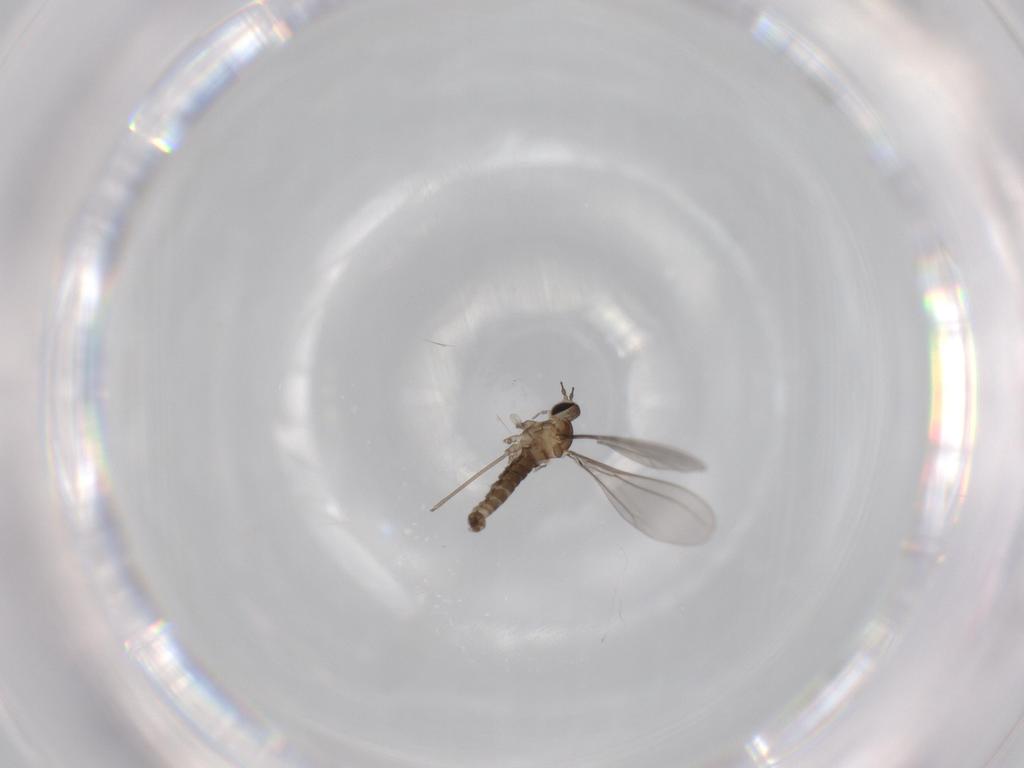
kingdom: Animalia
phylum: Arthropoda
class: Insecta
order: Diptera
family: Cecidomyiidae
